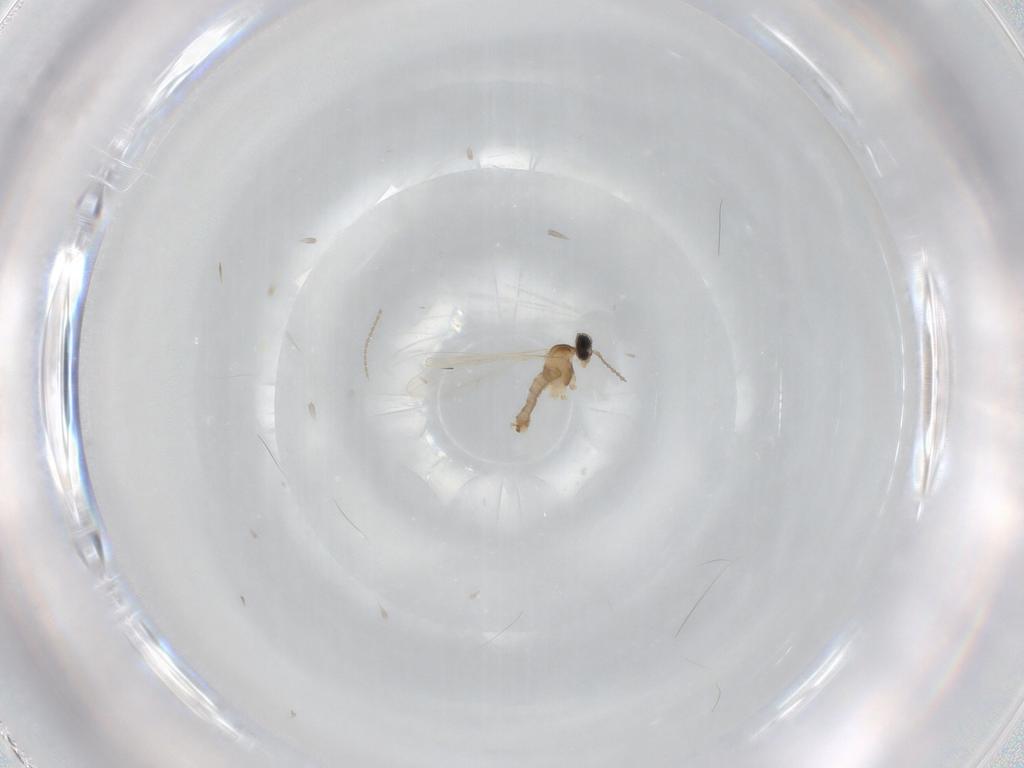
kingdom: Animalia
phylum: Arthropoda
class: Insecta
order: Diptera
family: Cecidomyiidae
